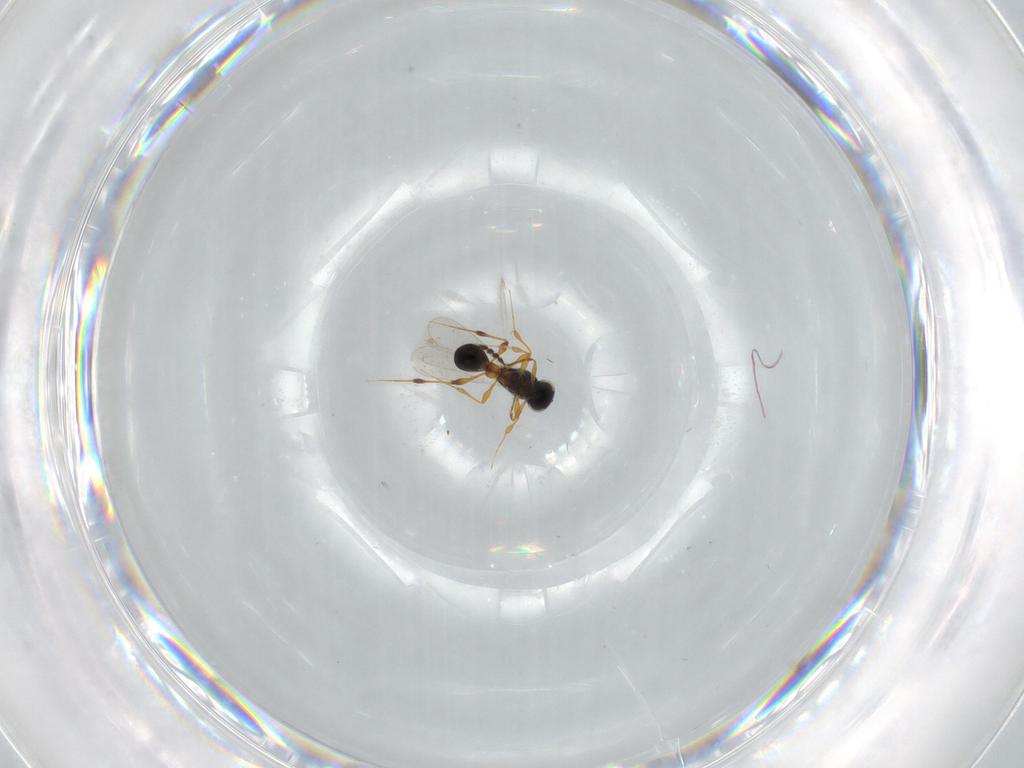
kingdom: Animalia
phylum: Arthropoda
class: Insecta
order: Hymenoptera
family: Platygastridae
